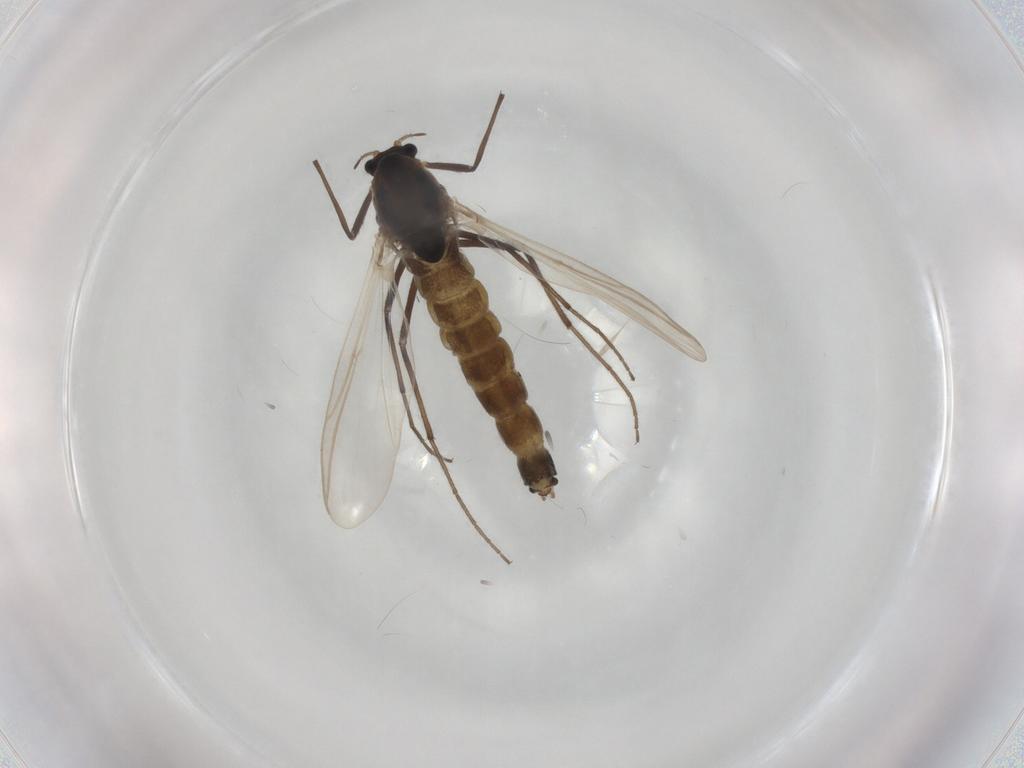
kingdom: Animalia
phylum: Arthropoda
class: Insecta
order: Diptera
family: Chironomidae
